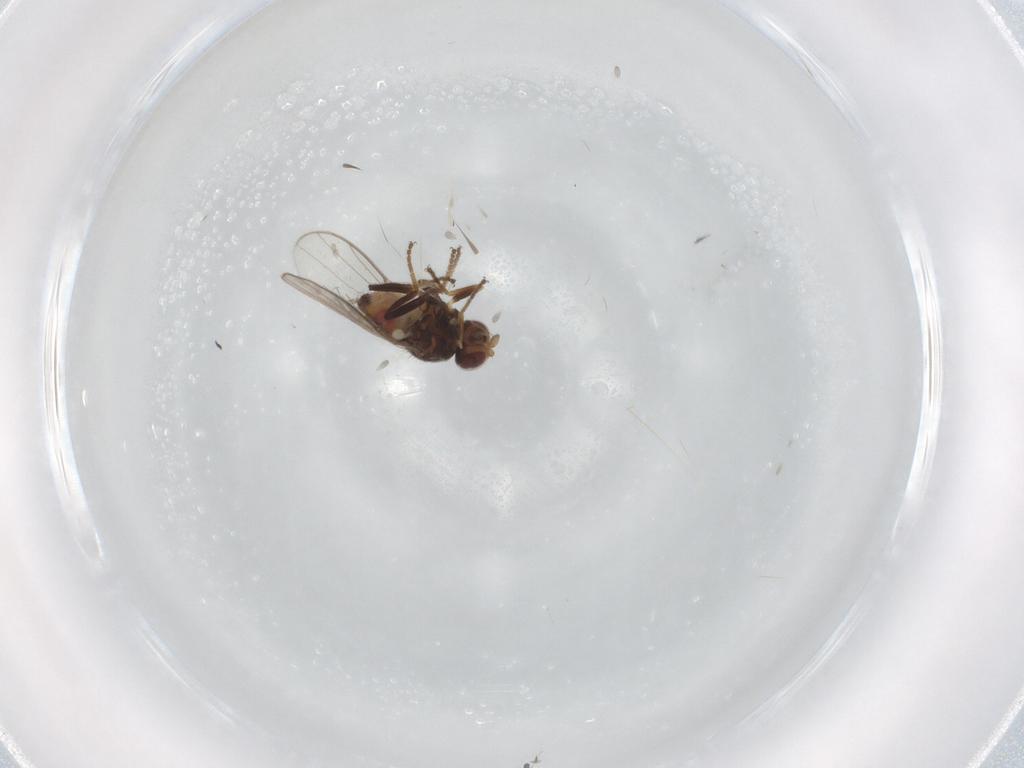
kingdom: Animalia
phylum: Arthropoda
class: Insecta
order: Diptera
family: Chloropidae
